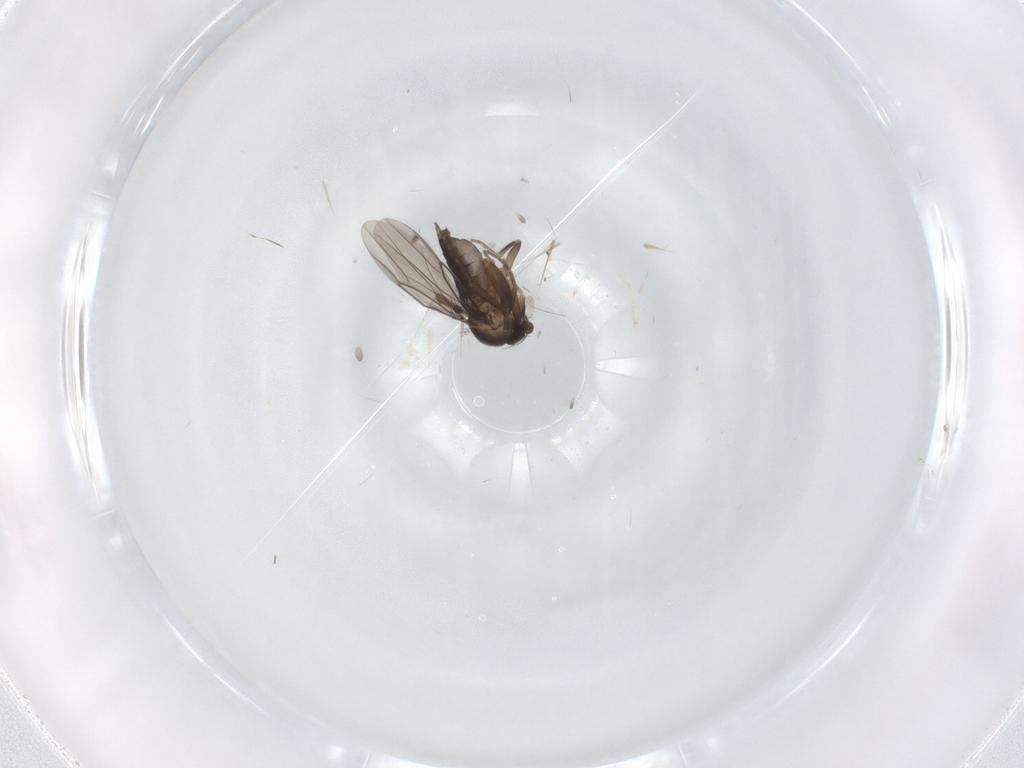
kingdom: Animalia
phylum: Arthropoda
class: Insecta
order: Diptera
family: Cecidomyiidae
